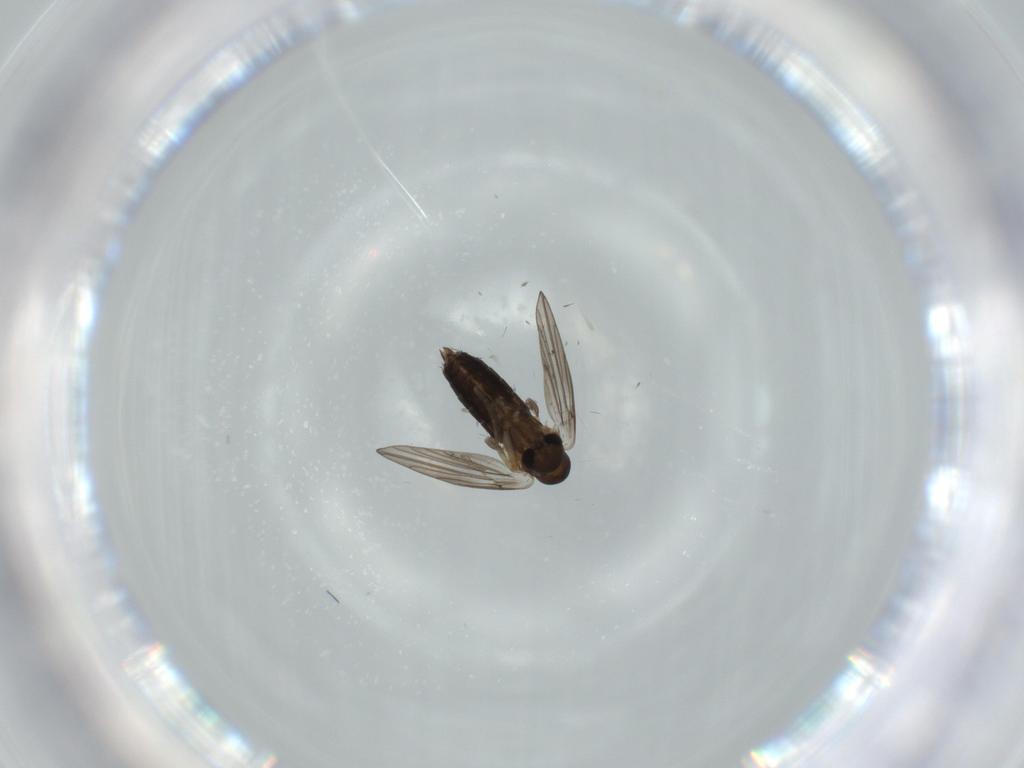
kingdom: Animalia
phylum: Arthropoda
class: Insecta
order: Diptera
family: Phoridae
